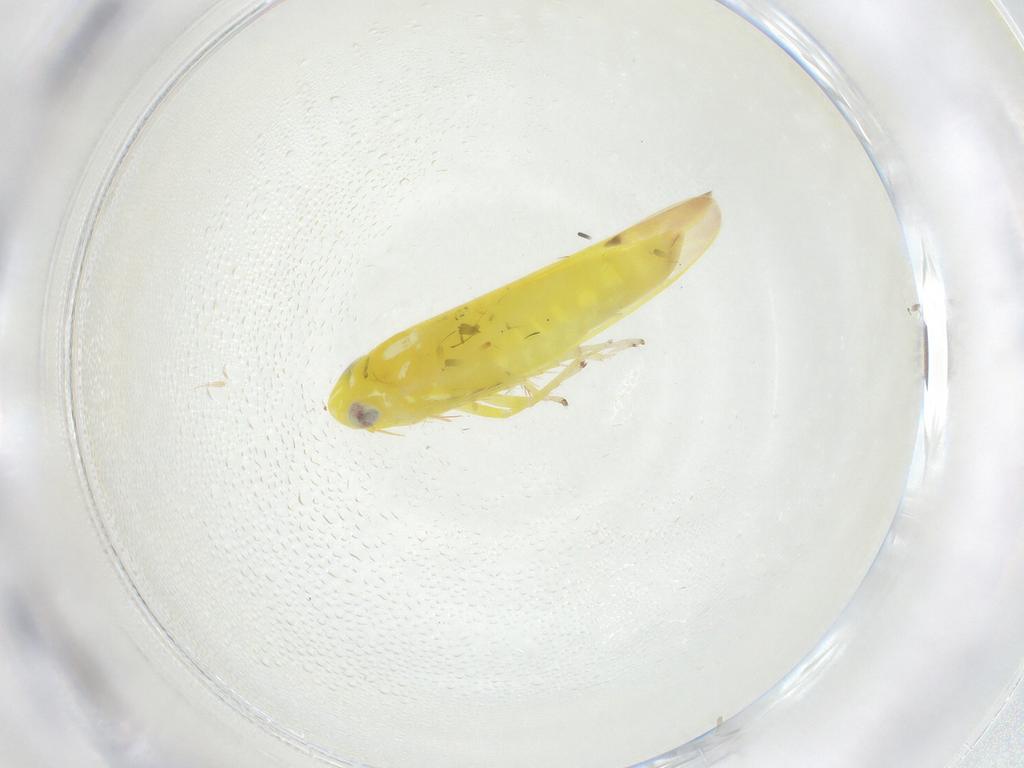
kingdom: Animalia
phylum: Arthropoda
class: Insecta
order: Hemiptera
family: Cicadellidae
